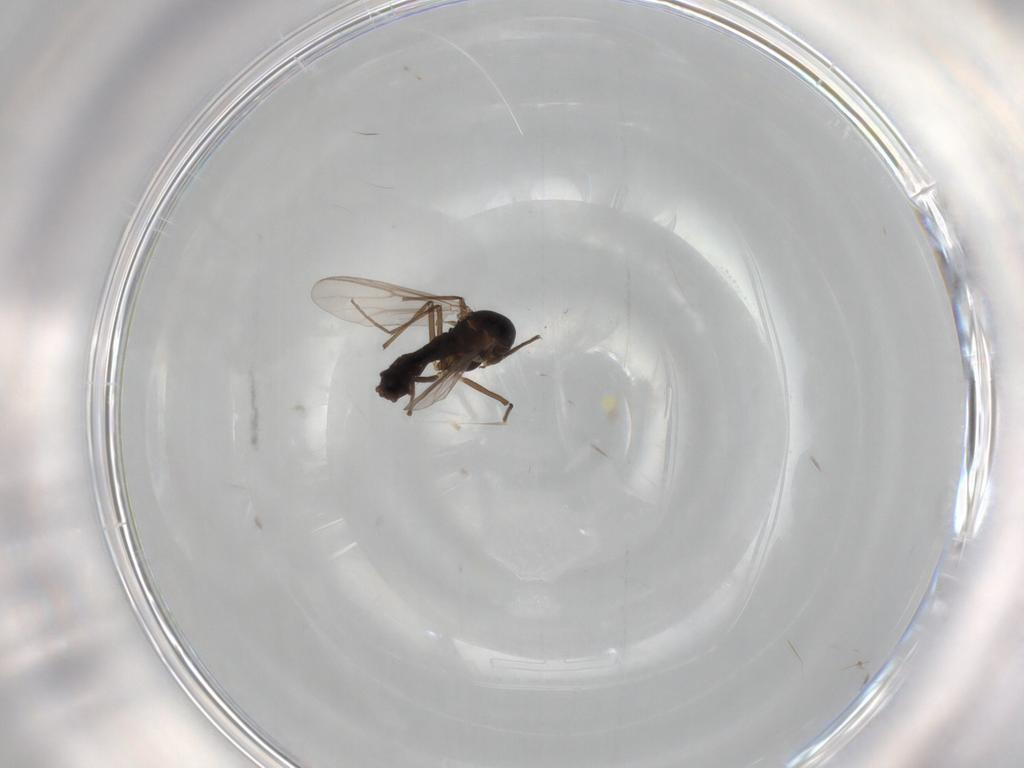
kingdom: Animalia
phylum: Arthropoda
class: Insecta
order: Diptera
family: Chironomidae
